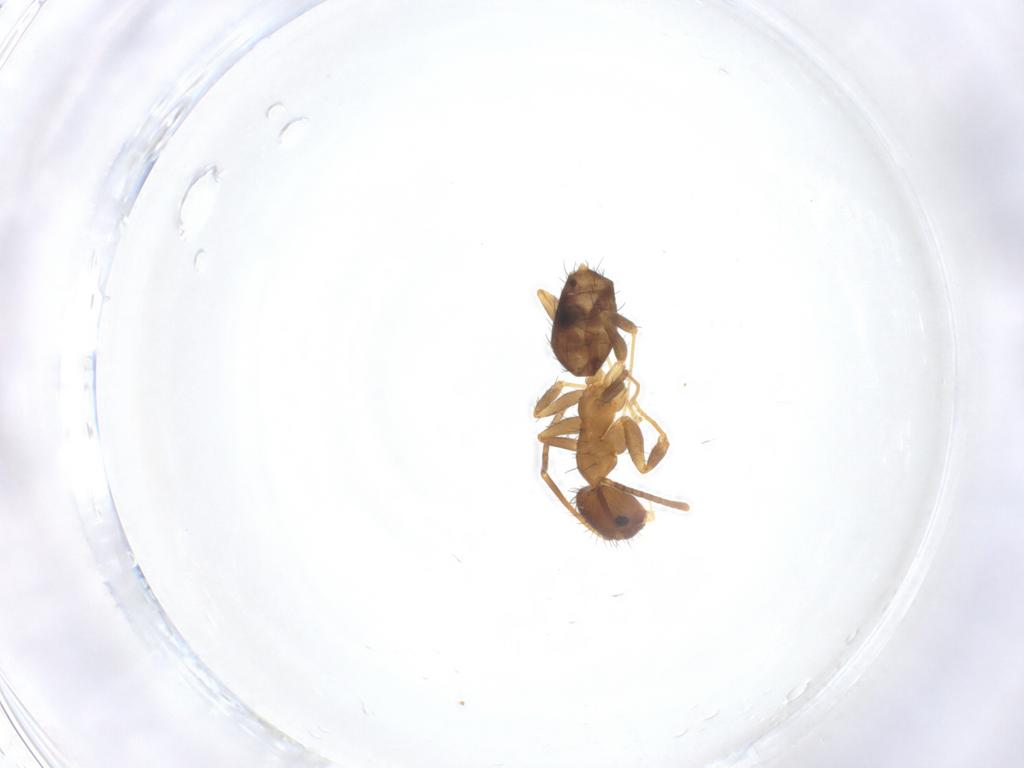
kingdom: Animalia
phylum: Arthropoda
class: Insecta
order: Hymenoptera
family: Formicidae
